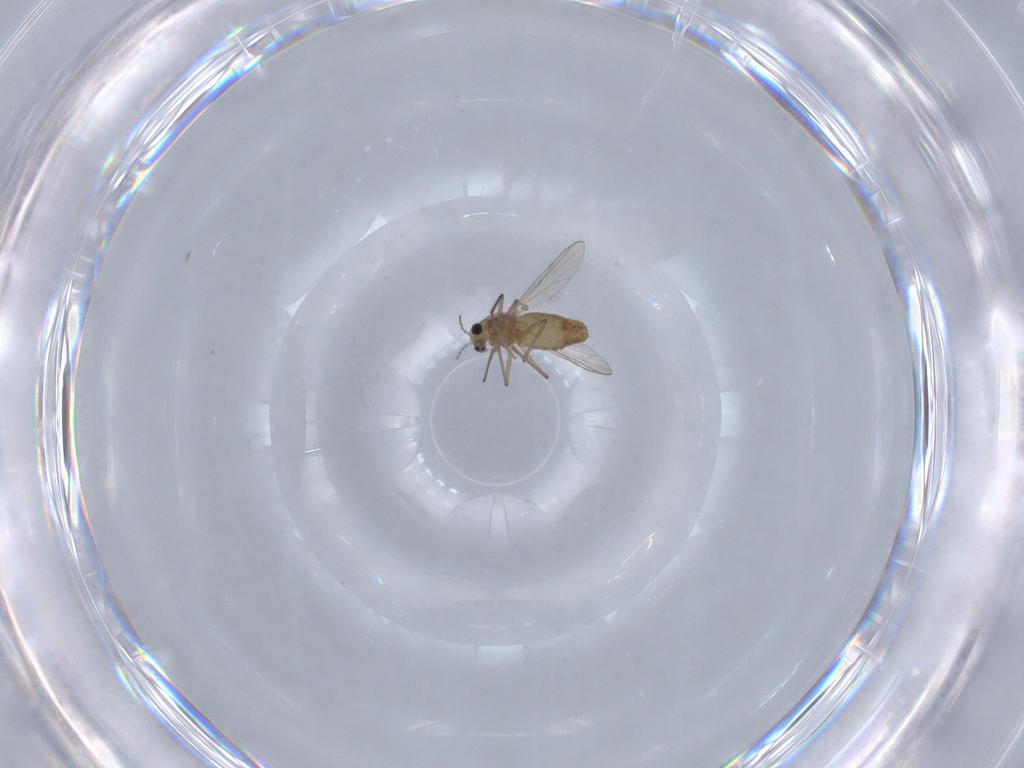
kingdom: Animalia
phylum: Arthropoda
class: Insecta
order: Diptera
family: Chironomidae
